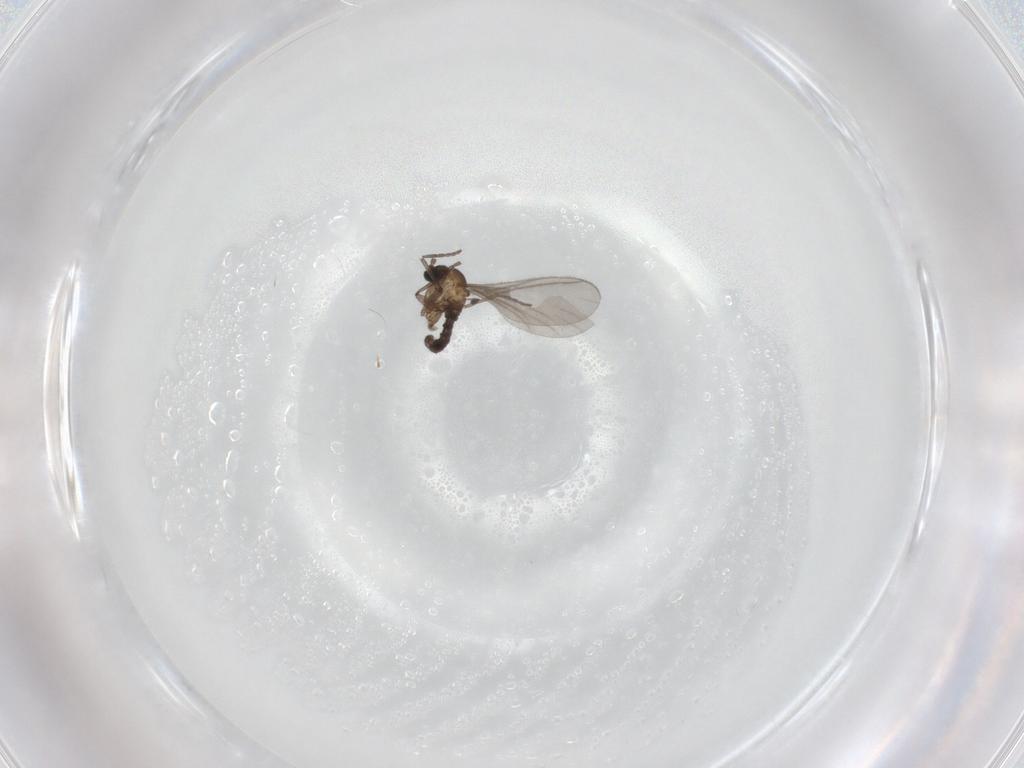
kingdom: Animalia
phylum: Arthropoda
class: Insecta
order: Diptera
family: Sciaridae
